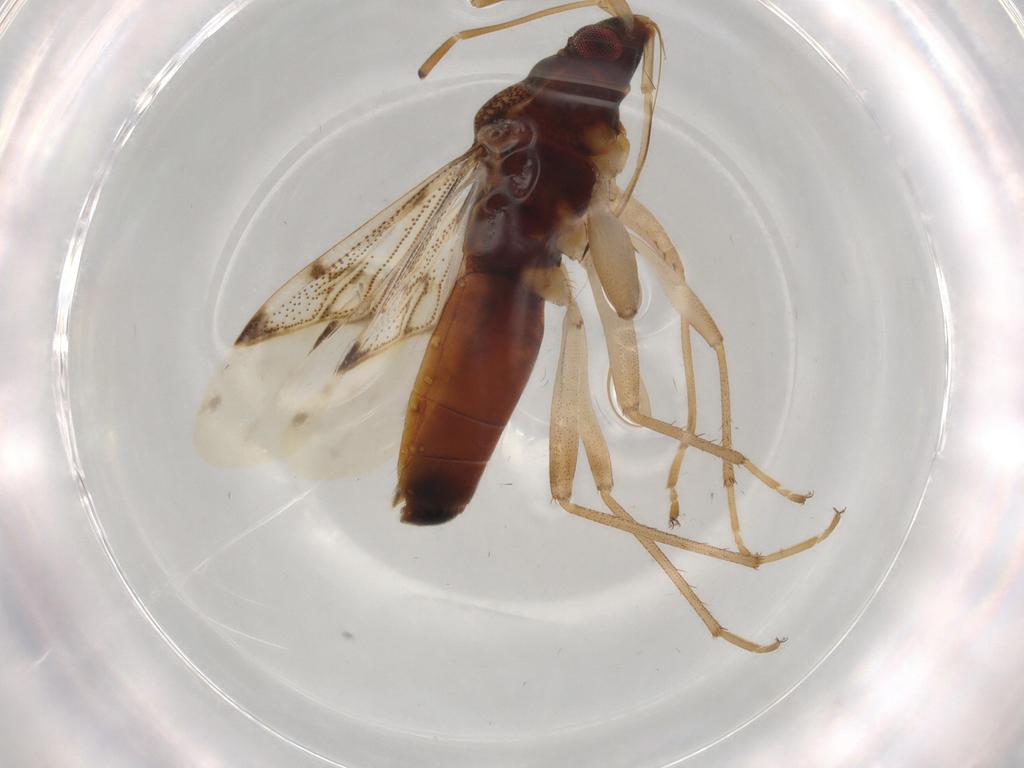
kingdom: Animalia
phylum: Arthropoda
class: Insecta
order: Hemiptera
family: Rhyparochromidae
